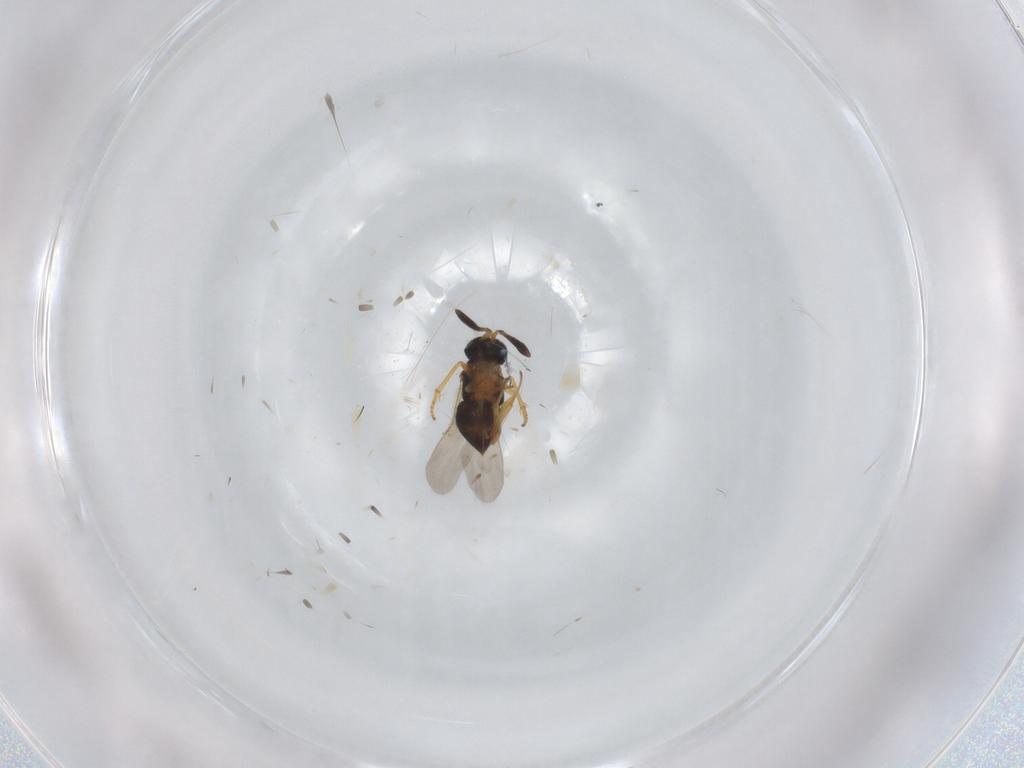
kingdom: Animalia
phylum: Arthropoda
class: Insecta
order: Hymenoptera
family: Encyrtidae
